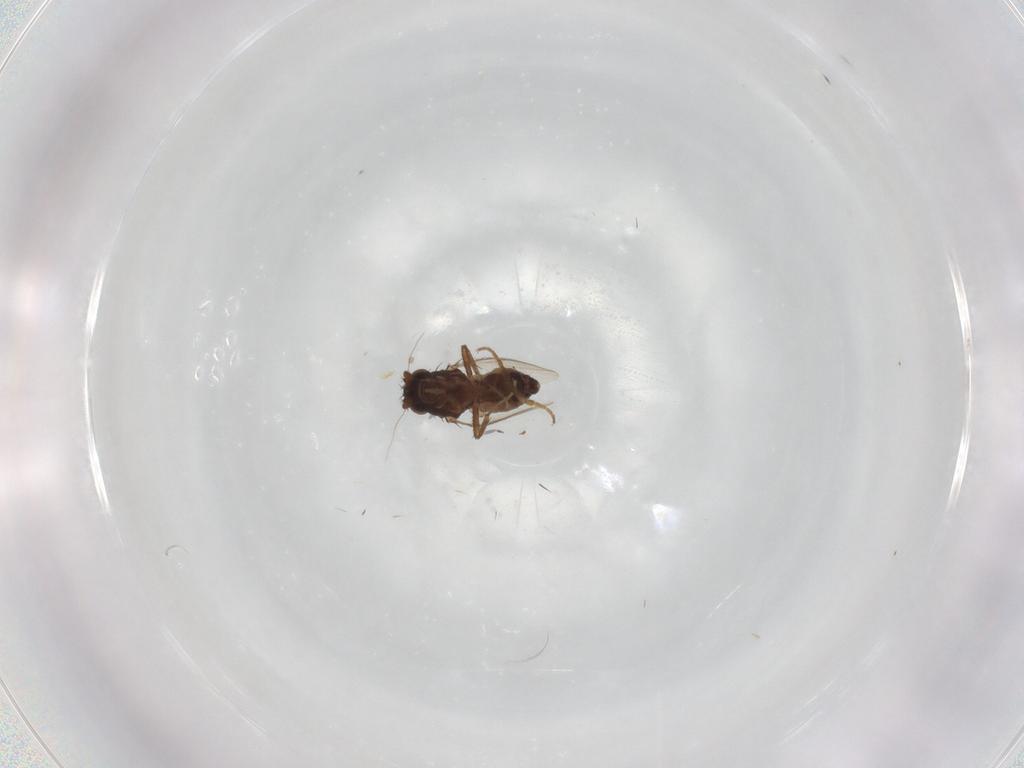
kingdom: Animalia
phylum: Arthropoda
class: Insecta
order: Diptera
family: Sphaeroceridae
